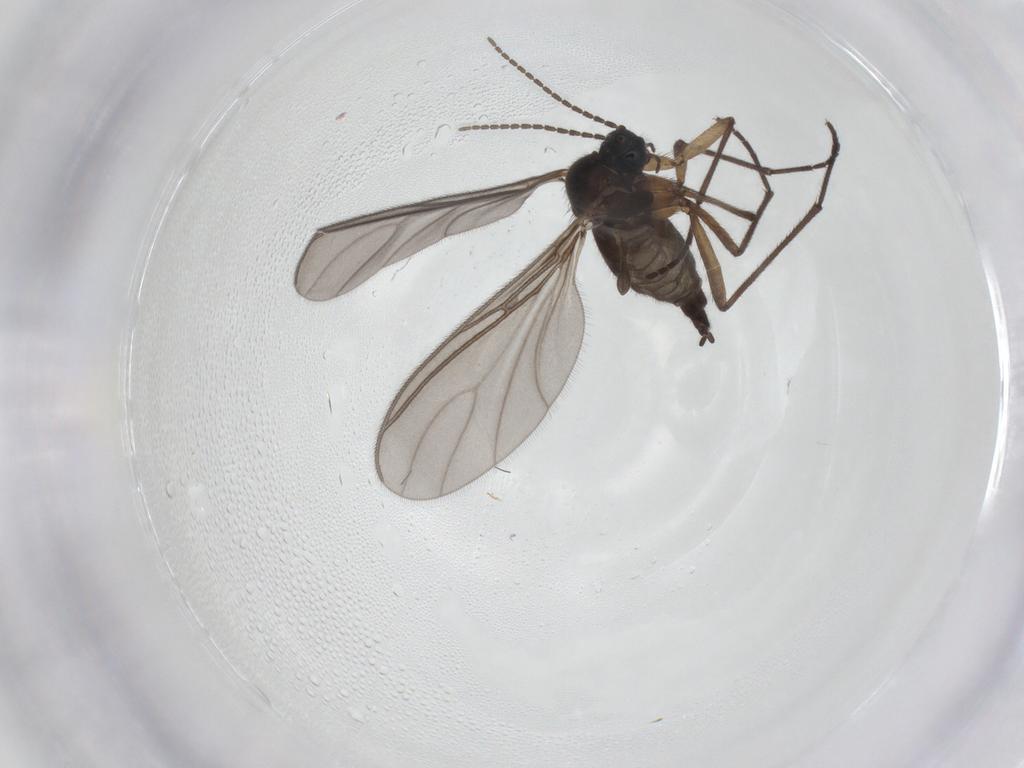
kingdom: Animalia
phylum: Arthropoda
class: Insecta
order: Diptera
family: Sciaridae
